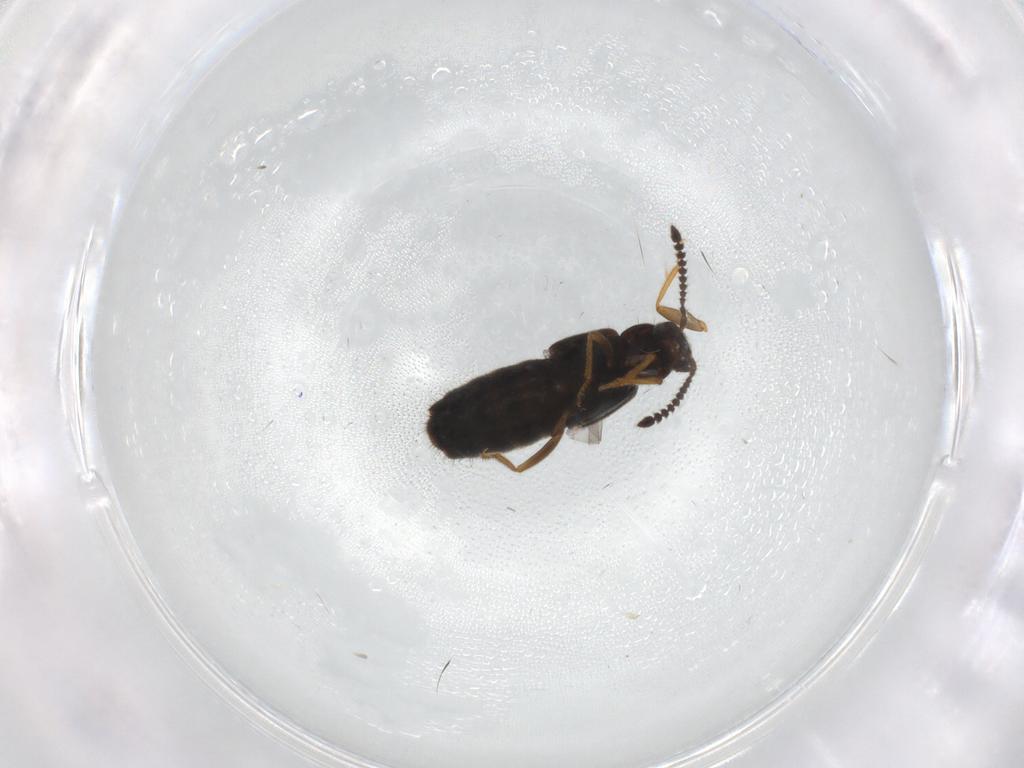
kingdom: Animalia
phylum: Arthropoda
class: Insecta
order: Coleoptera
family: Staphylinidae
